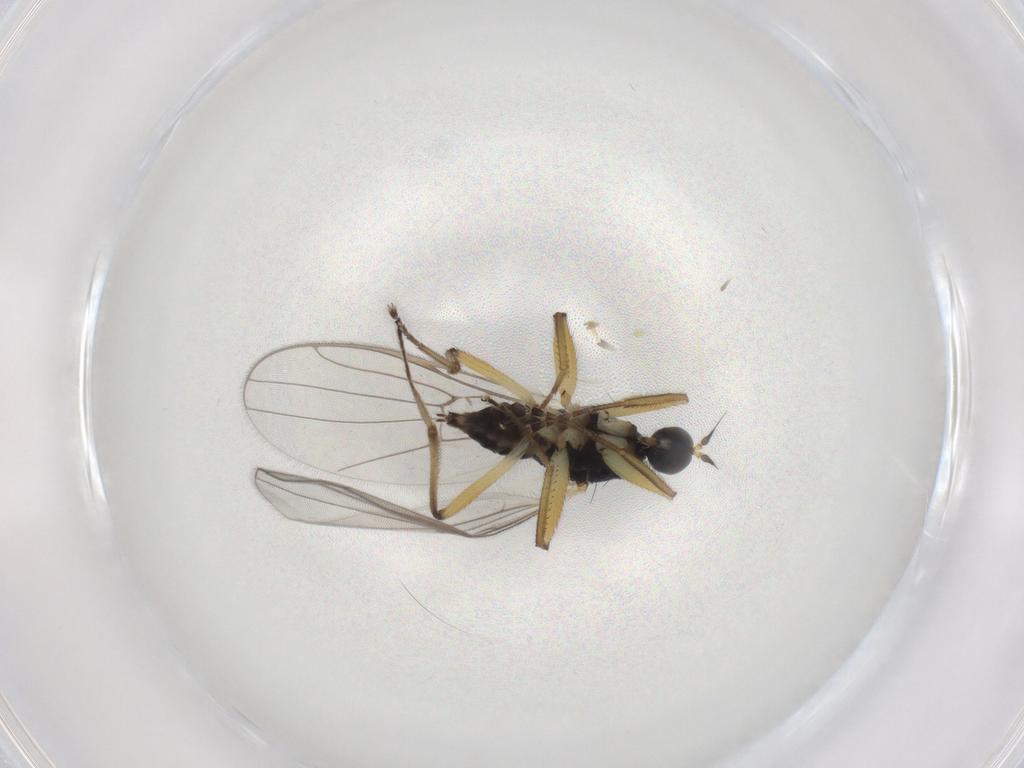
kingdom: Animalia
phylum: Arthropoda
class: Insecta
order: Diptera
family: Hybotidae
